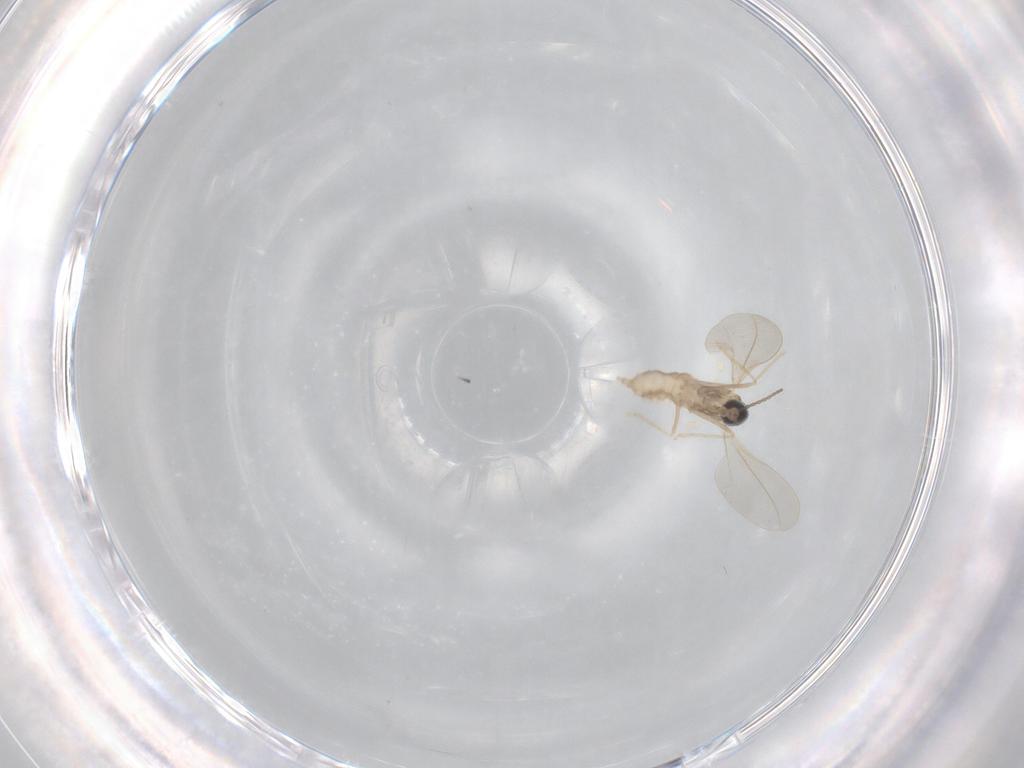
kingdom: Animalia
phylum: Arthropoda
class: Insecta
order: Diptera
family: Cecidomyiidae
